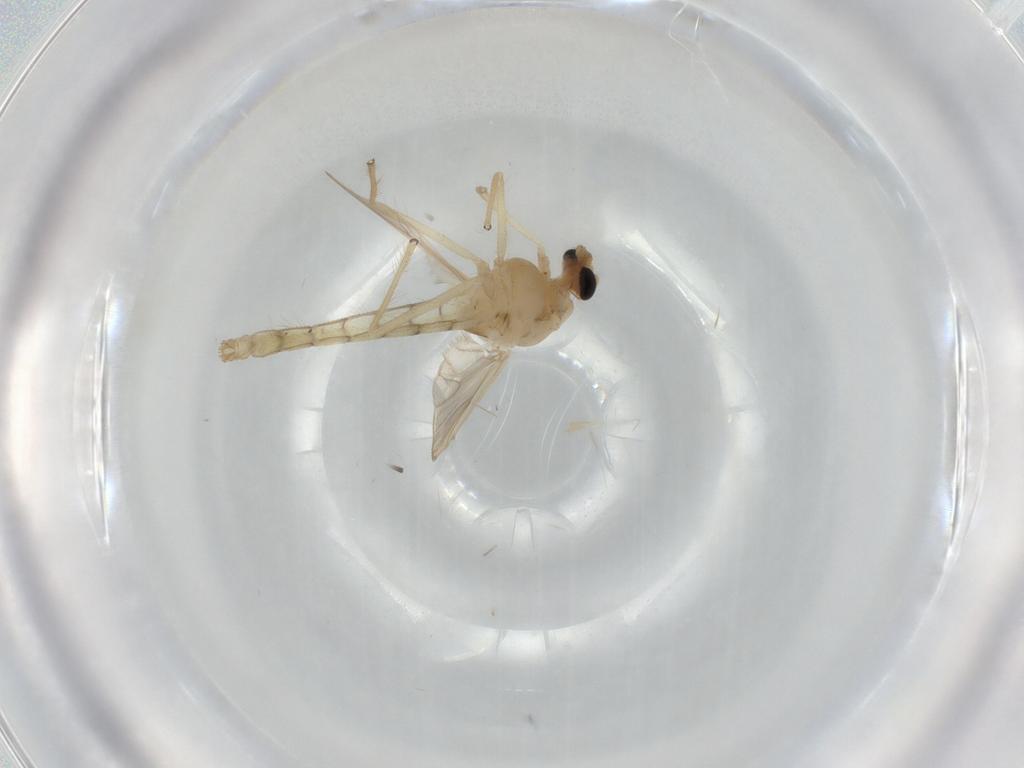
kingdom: Animalia
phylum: Arthropoda
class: Insecta
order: Diptera
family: Chironomidae
